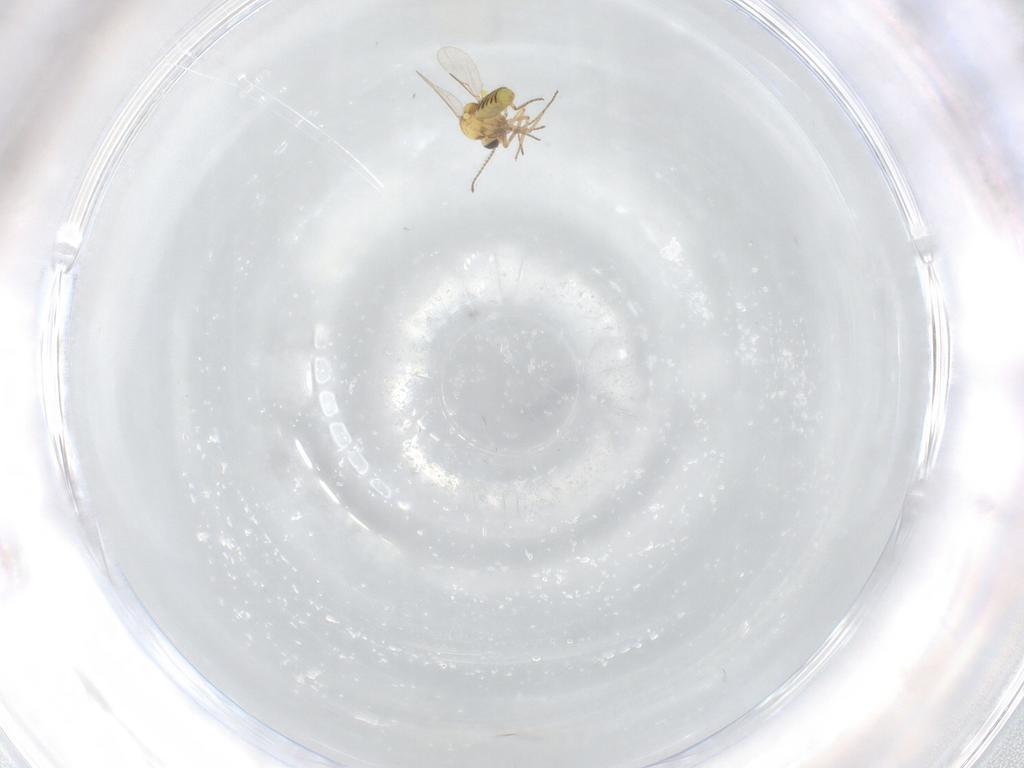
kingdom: Animalia
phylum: Arthropoda
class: Insecta
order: Diptera
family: Ceratopogonidae
